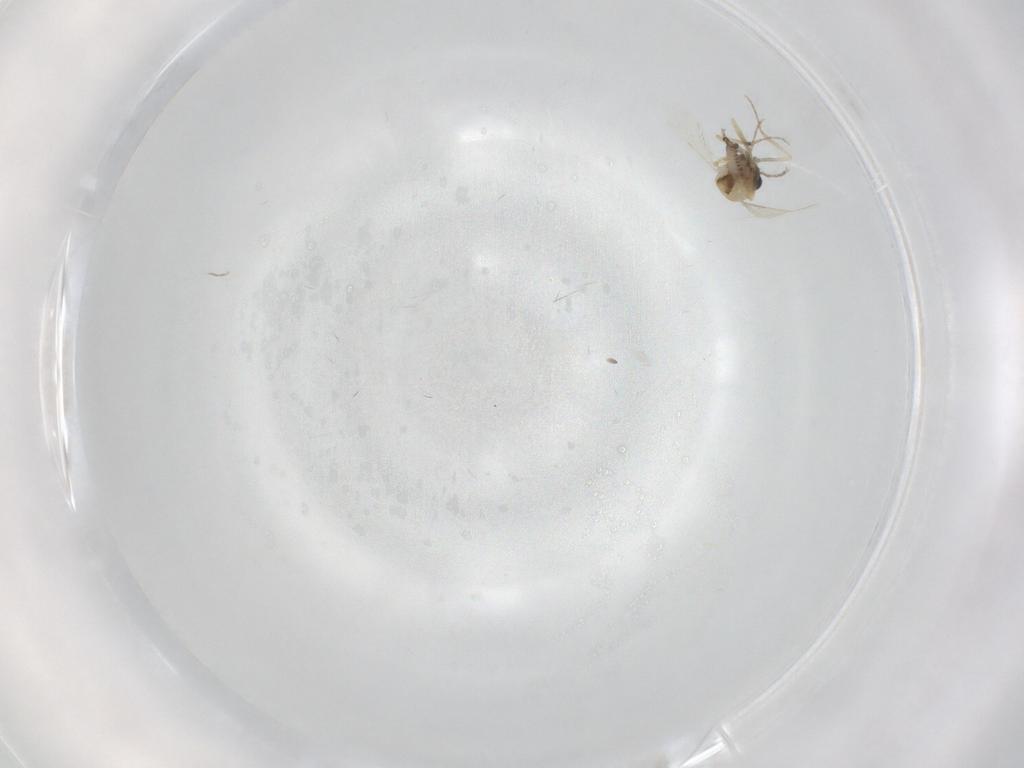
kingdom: Animalia
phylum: Arthropoda
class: Insecta
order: Diptera
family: Ceratopogonidae
